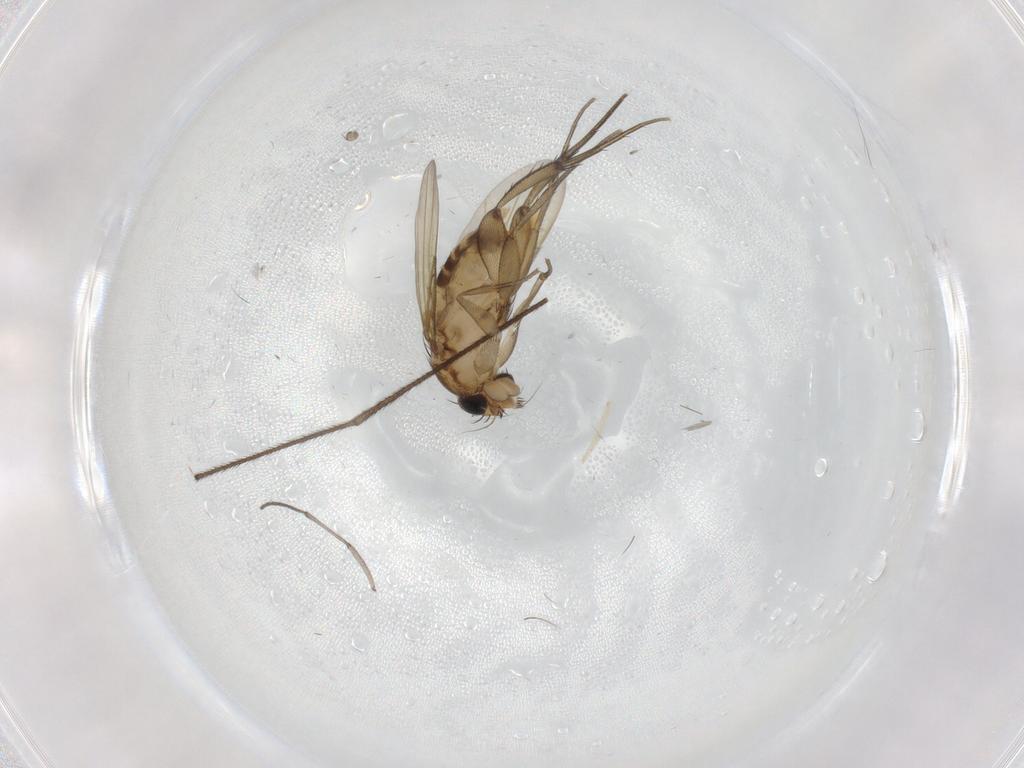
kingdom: Animalia
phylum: Arthropoda
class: Insecta
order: Diptera
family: Phoridae
